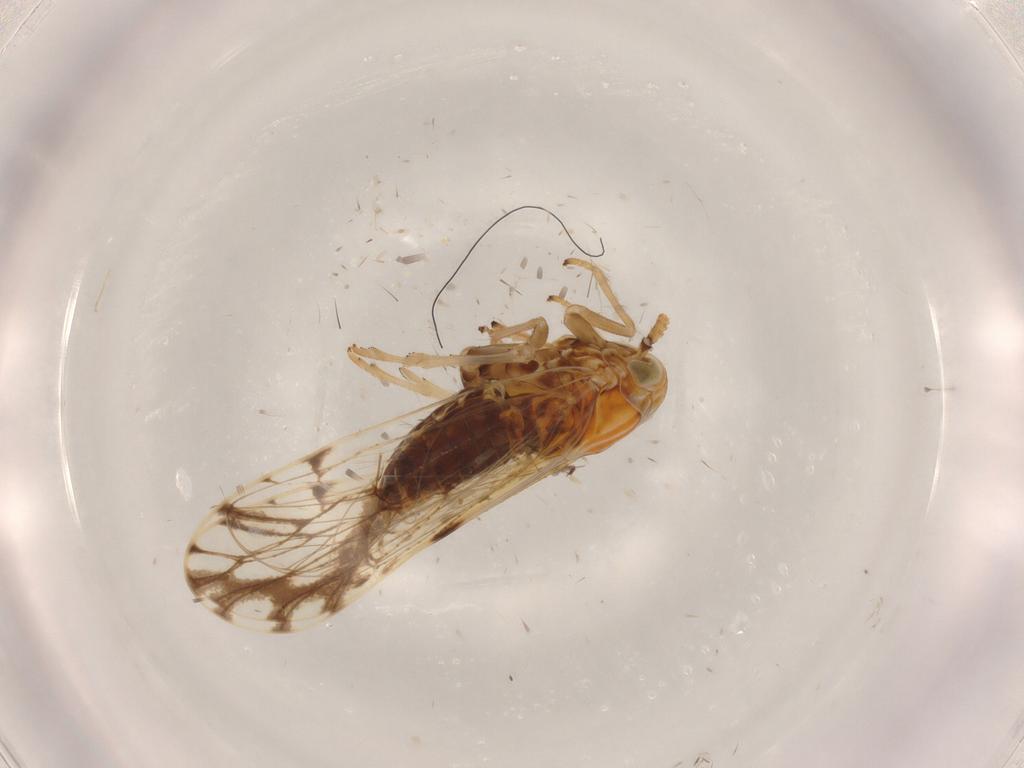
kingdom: Animalia
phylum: Arthropoda
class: Insecta
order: Hemiptera
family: Delphacidae
